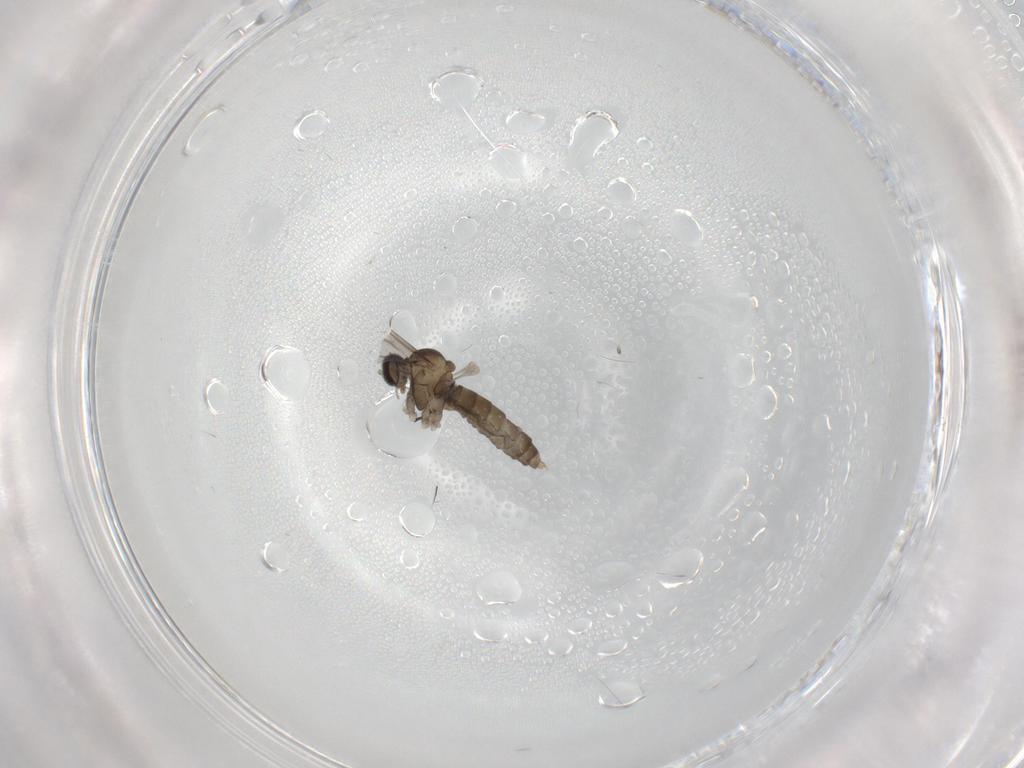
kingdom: Animalia
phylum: Arthropoda
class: Insecta
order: Diptera
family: Cecidomyiidae
